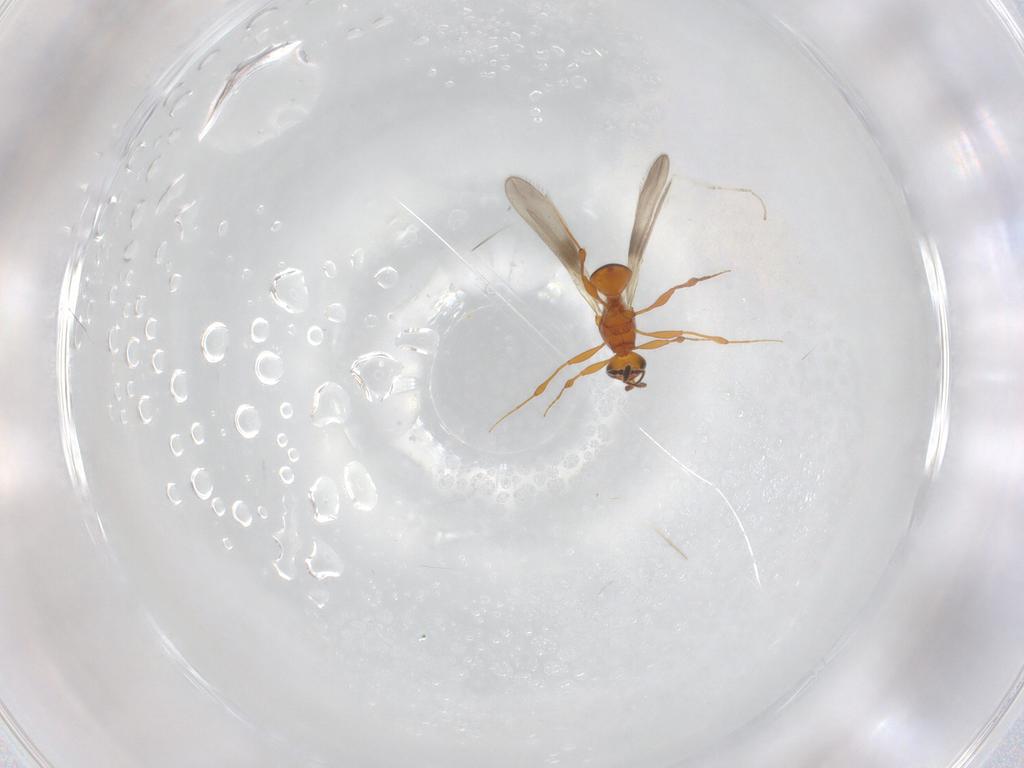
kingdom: Animalia
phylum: Arthropoda
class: Insecta
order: Hymenoptera
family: Platygastridae
